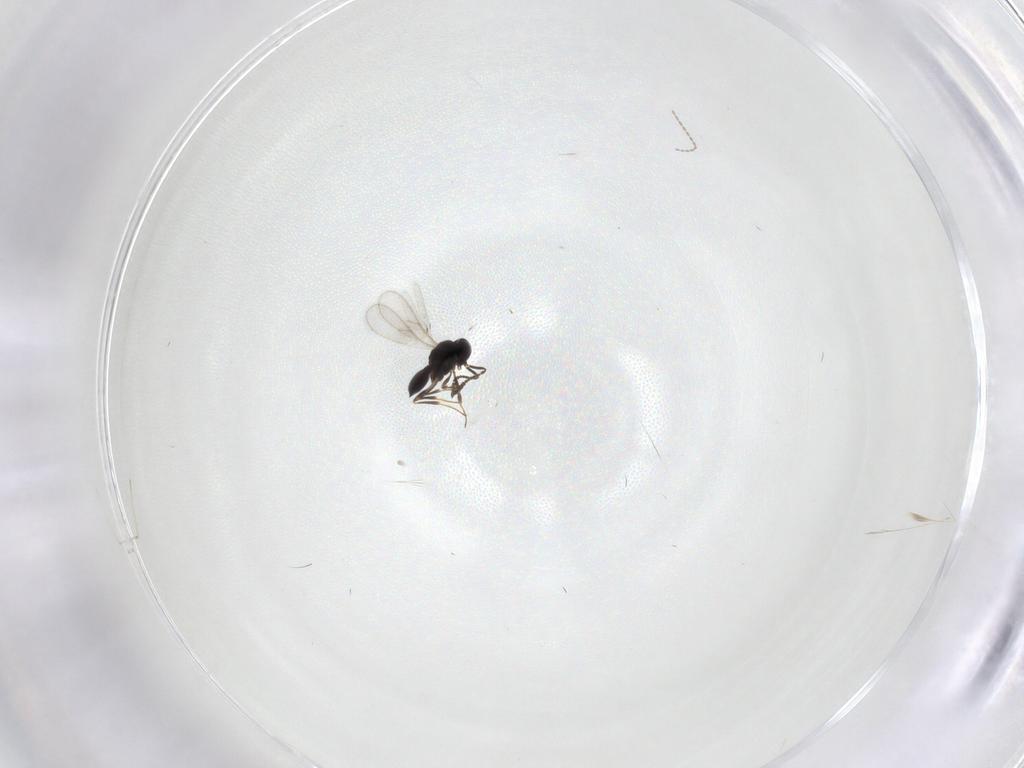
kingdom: Animalia
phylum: Arthropoda
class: Insecta
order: Hymenoptera
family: Scelionidae
